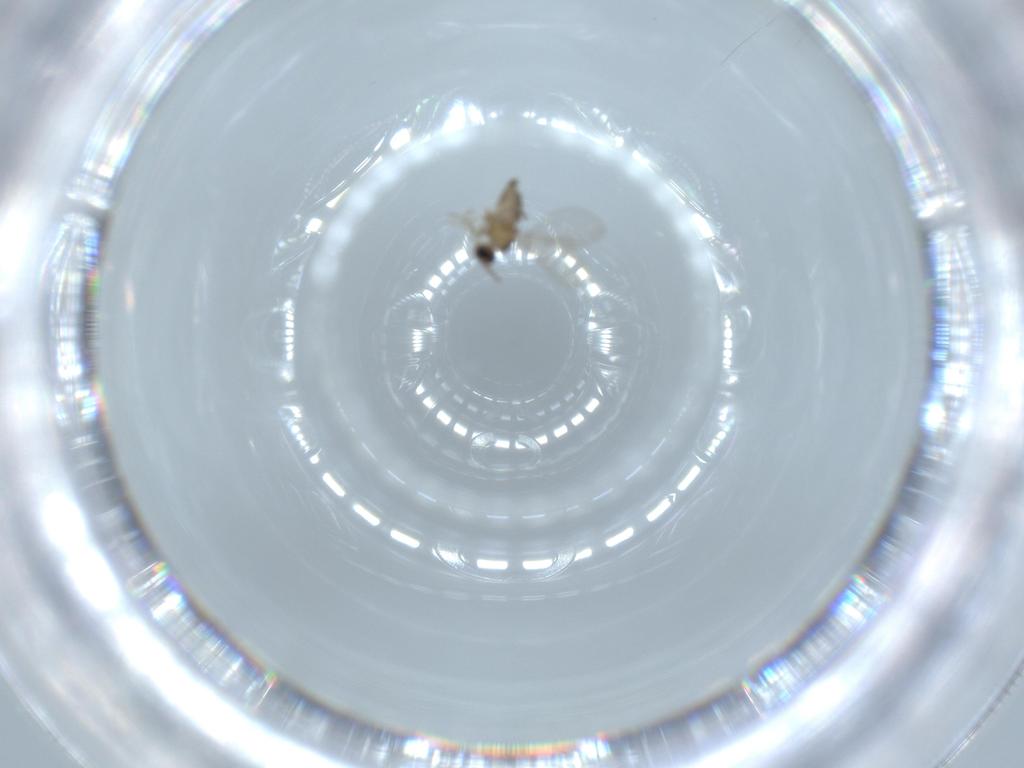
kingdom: Animalia
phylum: Arthropoda
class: Insecta
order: Diptera
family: Cecidomyiidae
